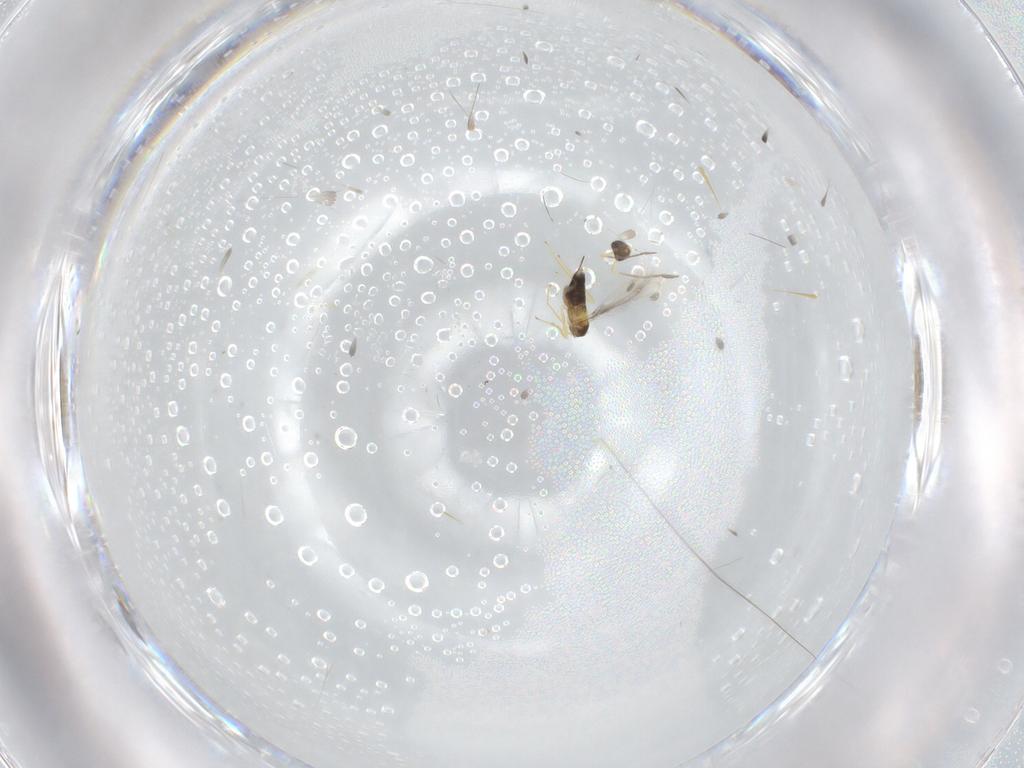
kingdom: Animalia
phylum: Arthropoda
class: Insecta
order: Hymenoptera
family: Mymaridae
